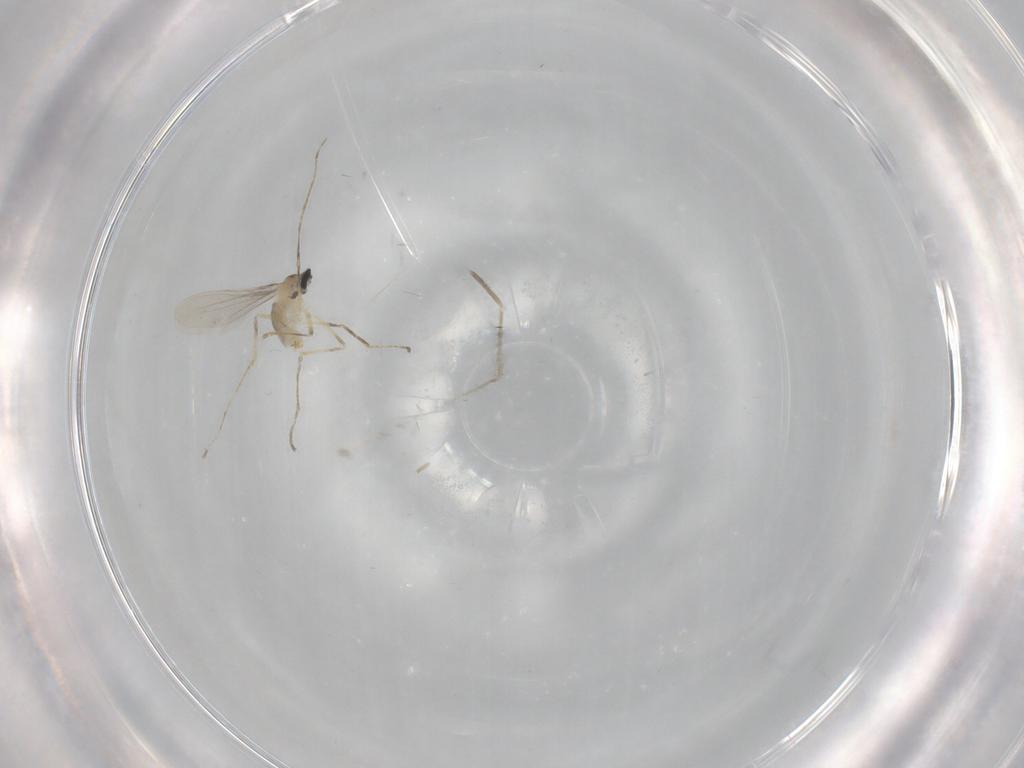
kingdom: Animalia
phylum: Arthropoda
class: Insecta
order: Diptera
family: Cecidomyiidae
